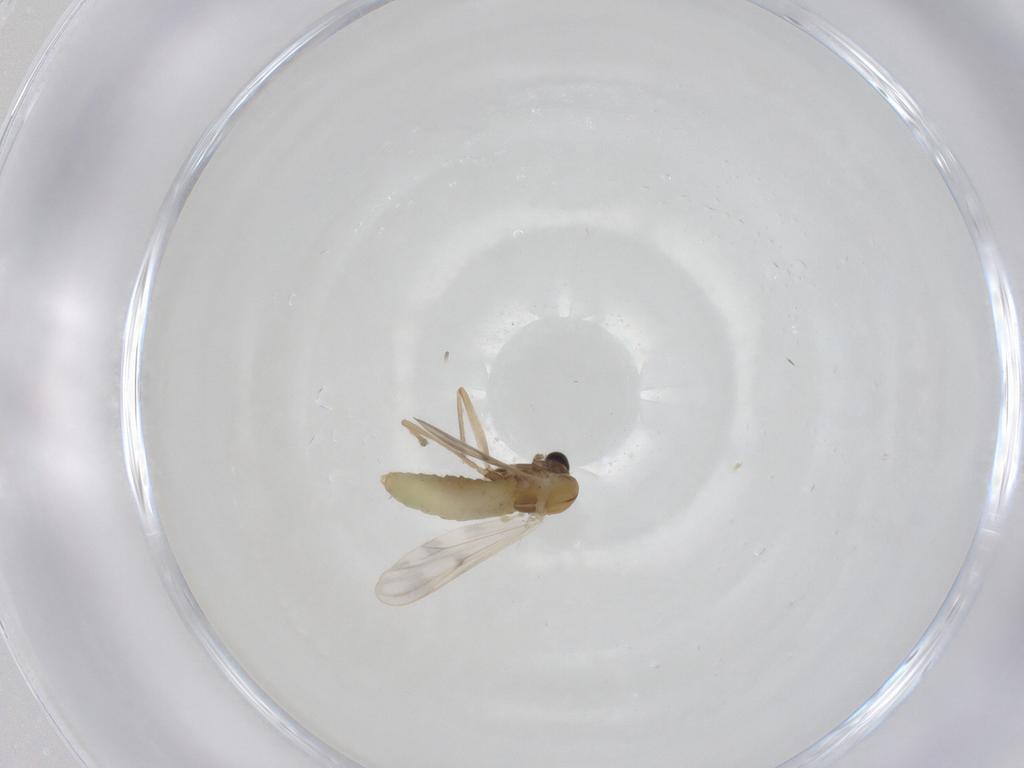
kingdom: Animalia
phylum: Arthropoda
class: Insecta
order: Diptera
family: Chironomidae
